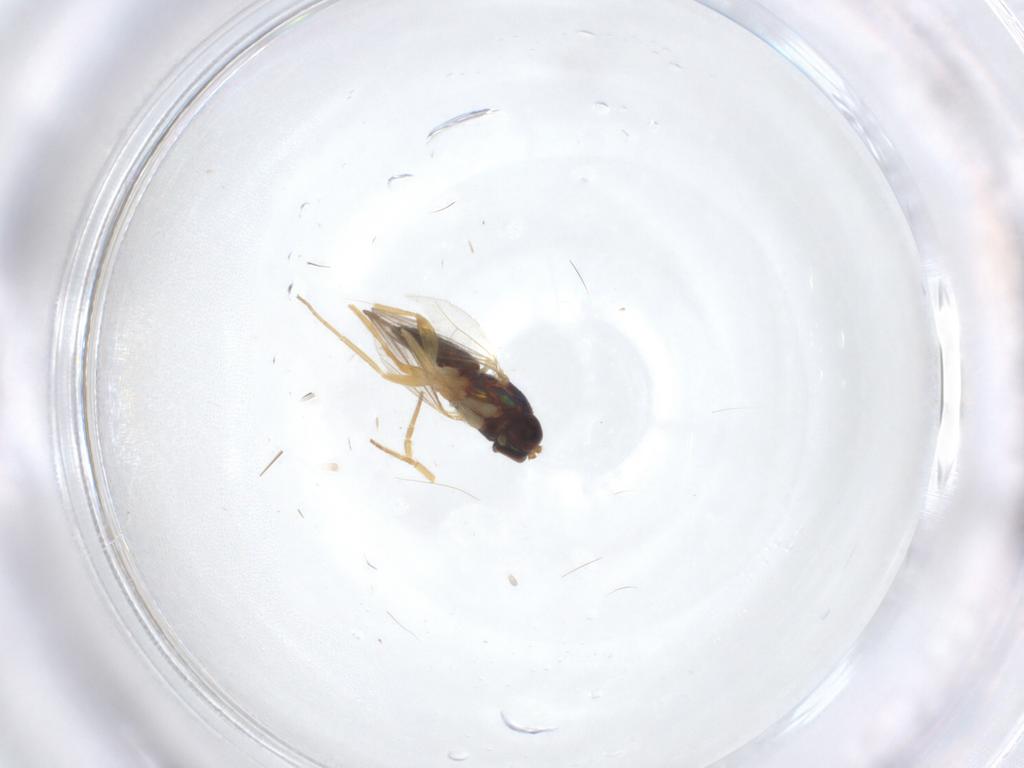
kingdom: Animalia
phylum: Arthropoda
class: Insecta
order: Diptera
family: Dolichopodidae
